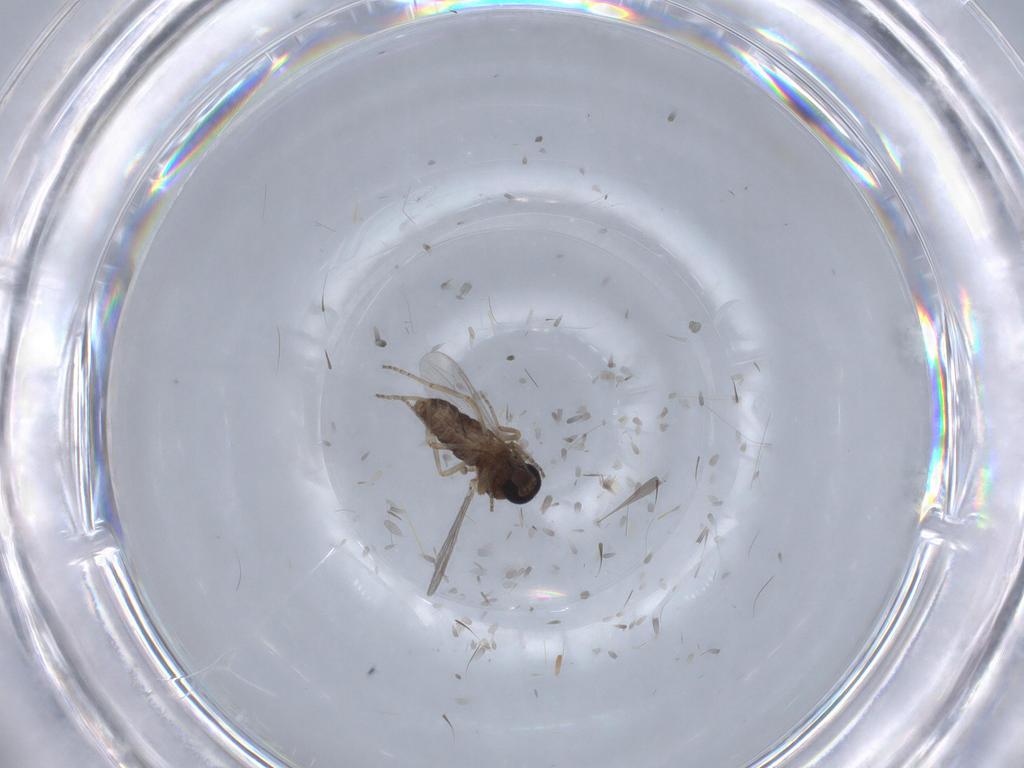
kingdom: Animalia
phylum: Arthropoda
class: Insecta
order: Diptera
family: Ceratopogonidae
